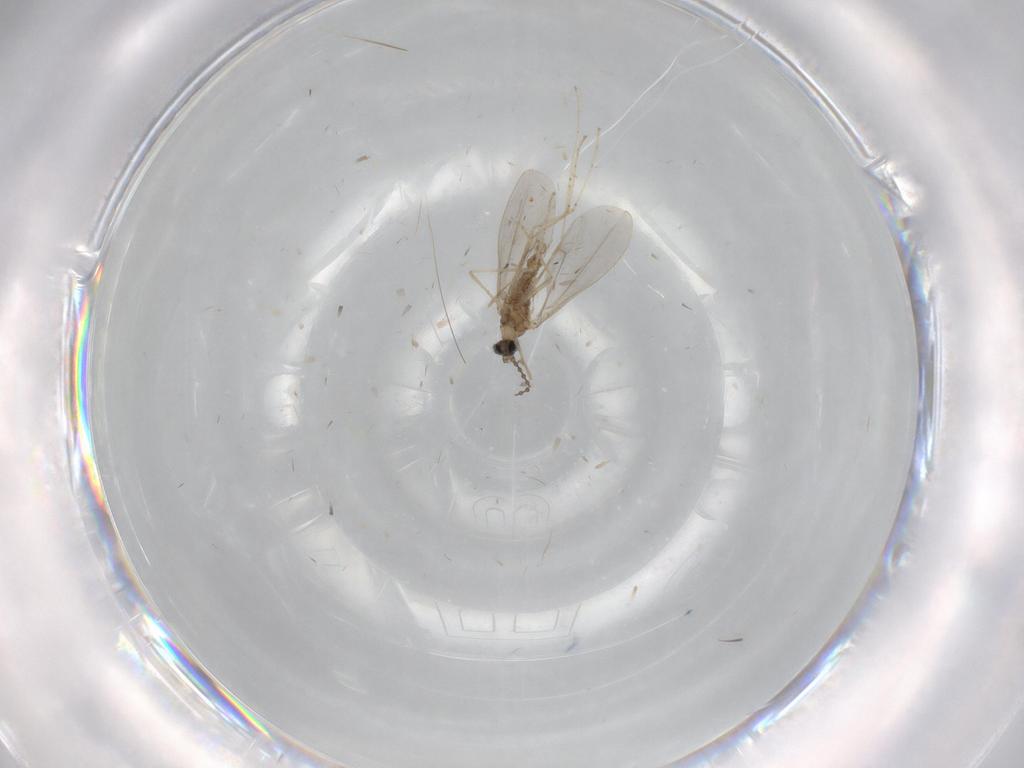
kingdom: Animalia
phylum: Arthropoda
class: Insecta
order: Diptera
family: Cecidomyiidae
